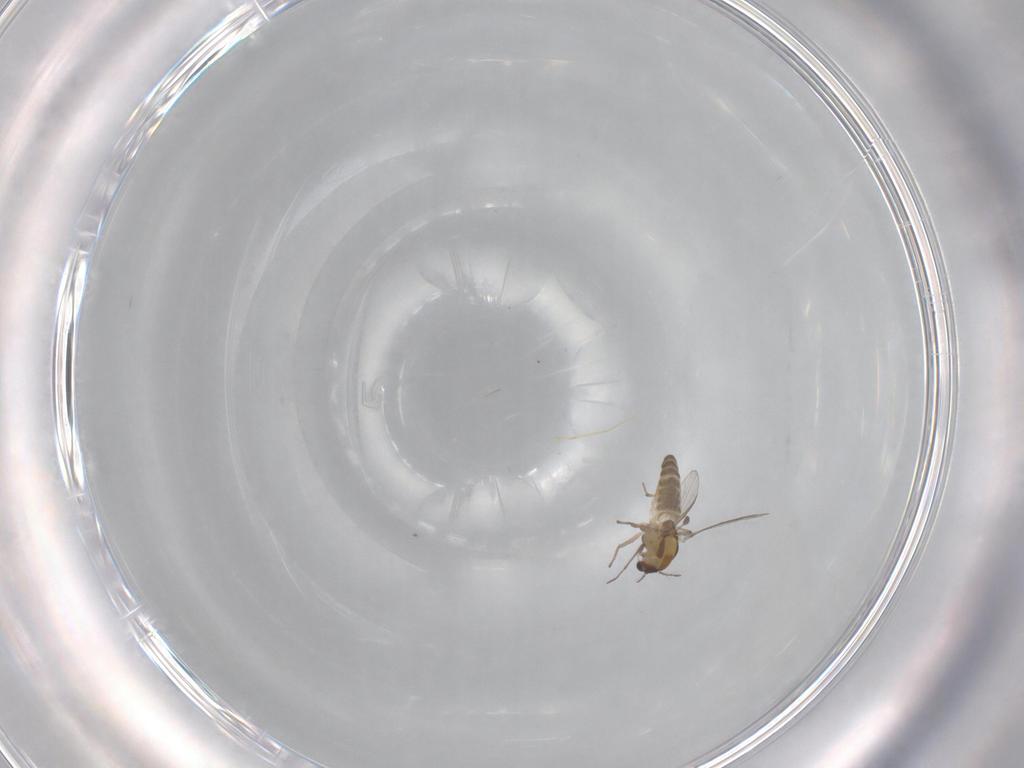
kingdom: Animalia
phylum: Arthropoda
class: Insecta
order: Diptera
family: Chironomidae
